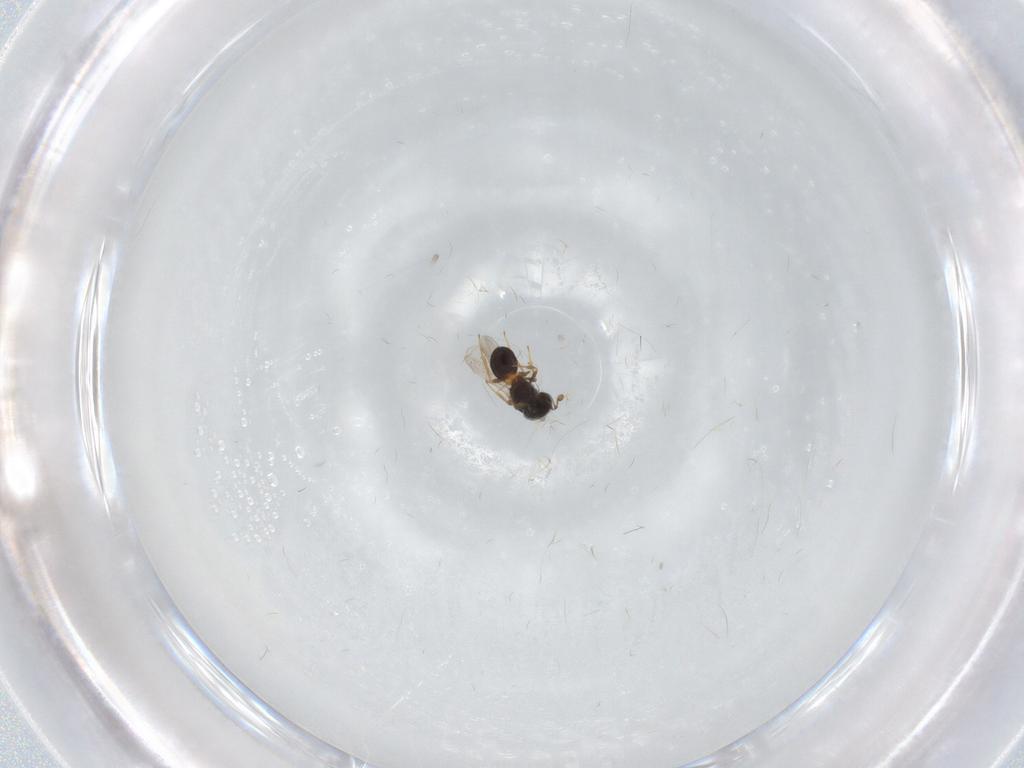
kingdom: Animalia
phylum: Arthropoda
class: Insecta
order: Hymenoptera
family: Scelionidae
